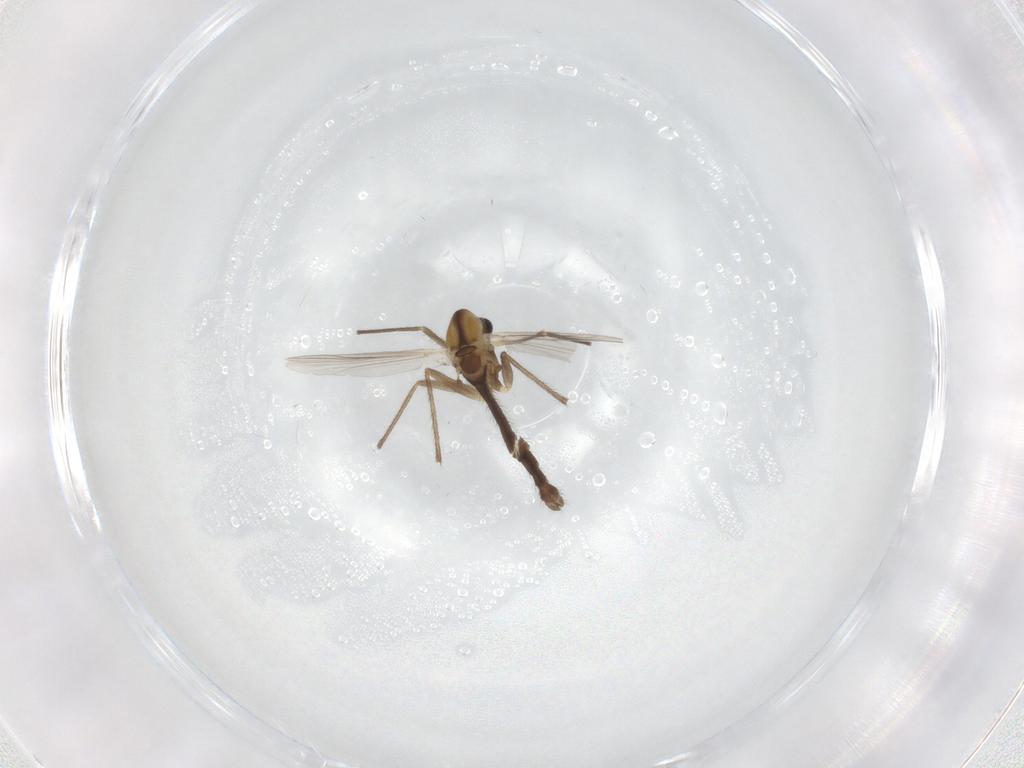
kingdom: Animalia
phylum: Arthropoda
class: Insecta
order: Diptera
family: Chironomidae
